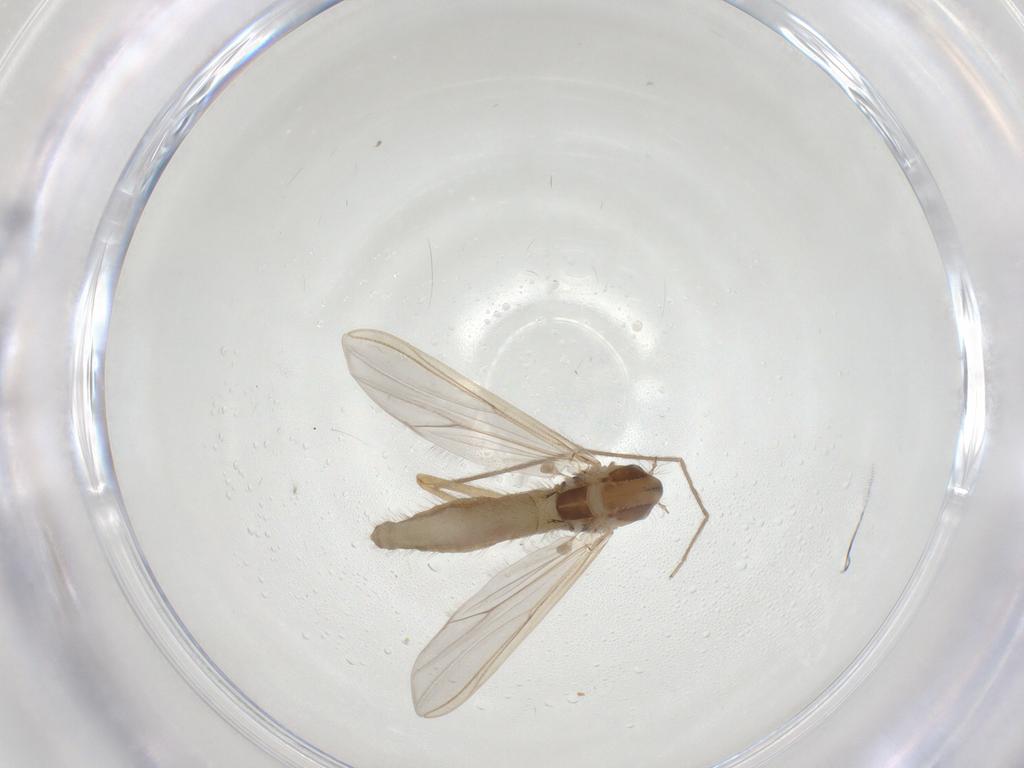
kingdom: Animalia
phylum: Arthropoda
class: Insecta
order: Diptera
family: Chironomidae
